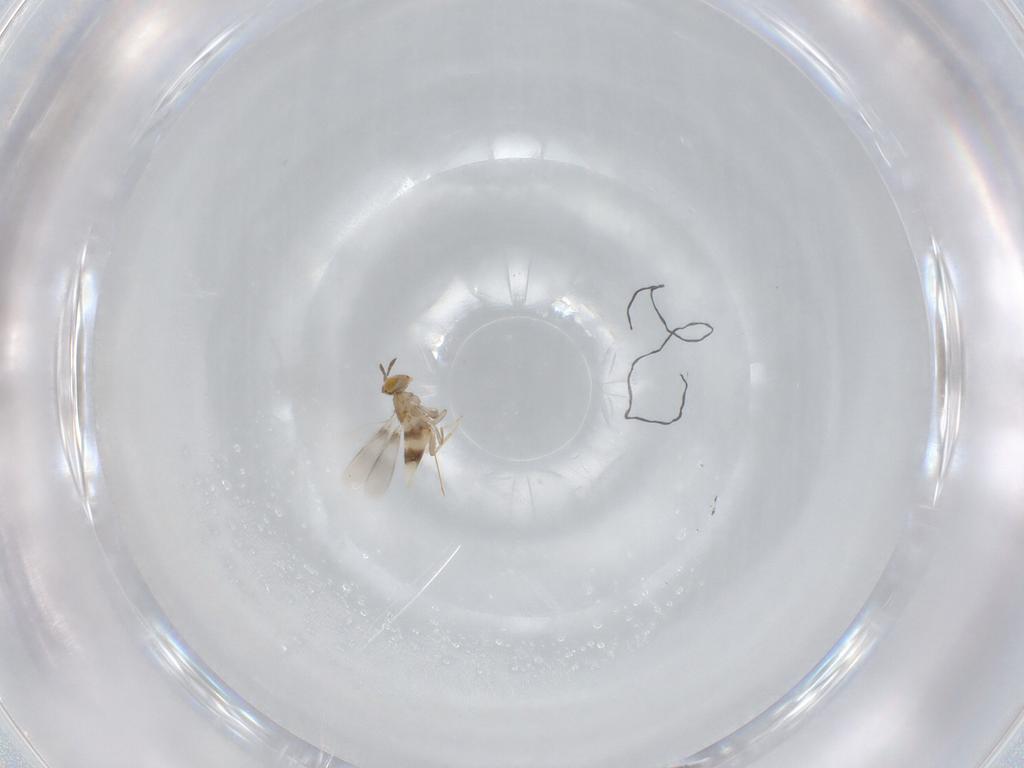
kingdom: Animalia
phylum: Arthropoda
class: Insecta
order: Hymenoptera
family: Aphelinidae
